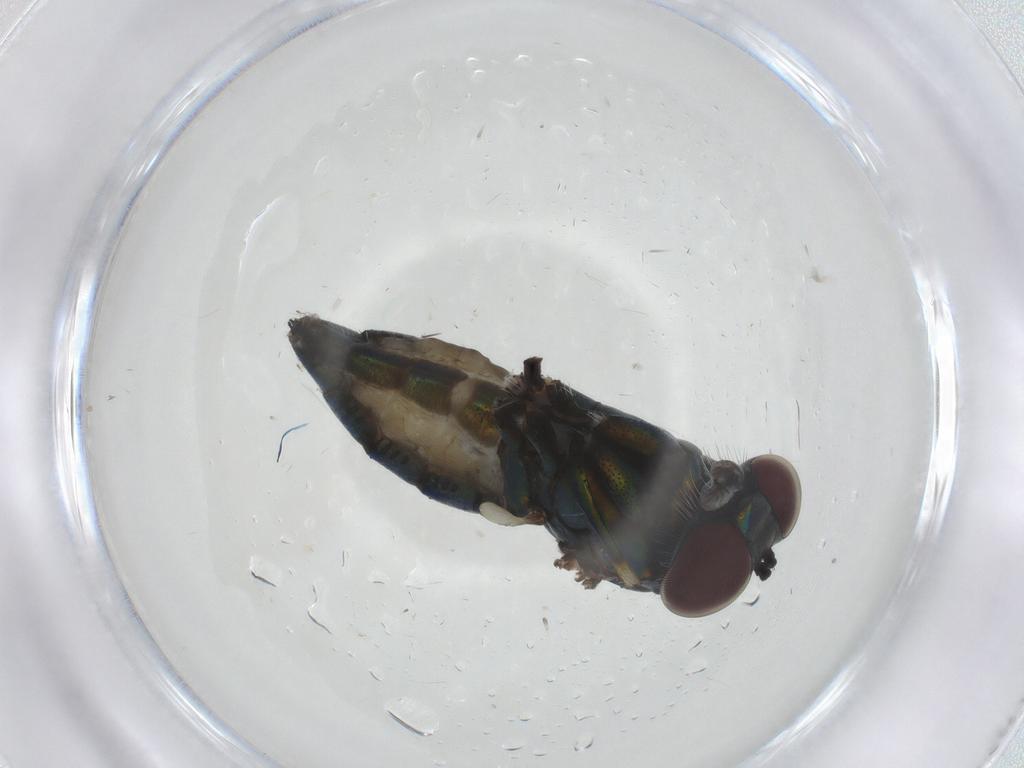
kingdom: Animalia
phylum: Arthropoda
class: Insecta
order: Diptera
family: Dolichopodidae
